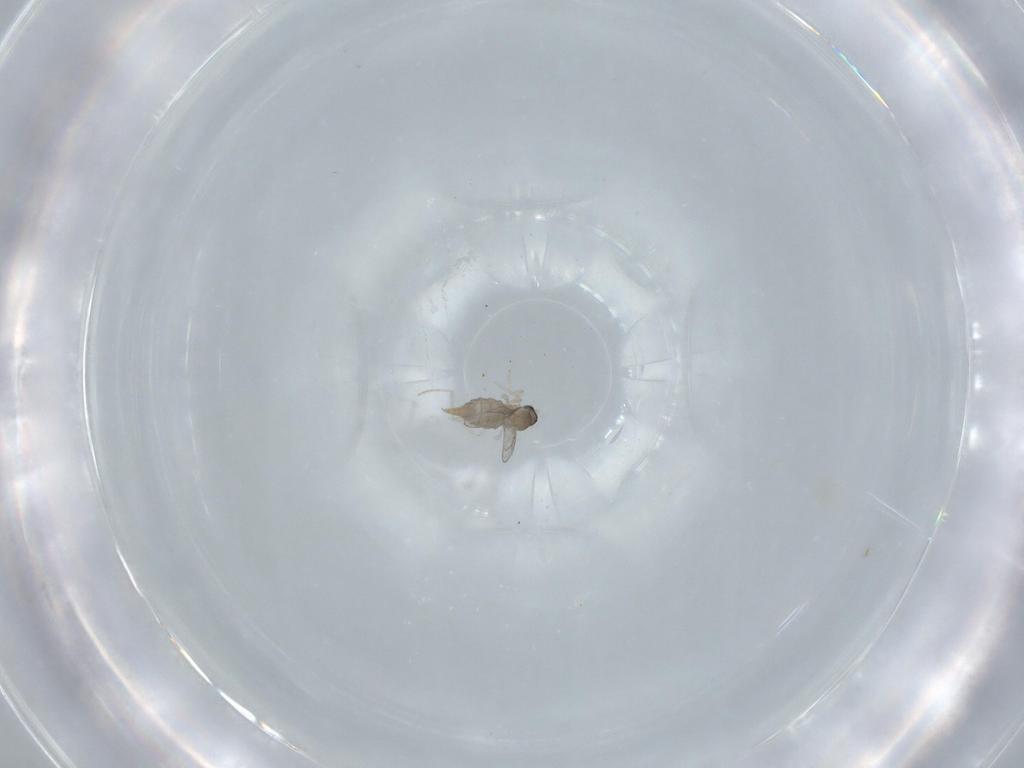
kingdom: Animalia
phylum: Arthropoda
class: Insecta
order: Diptera
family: Cecidomyiidae
